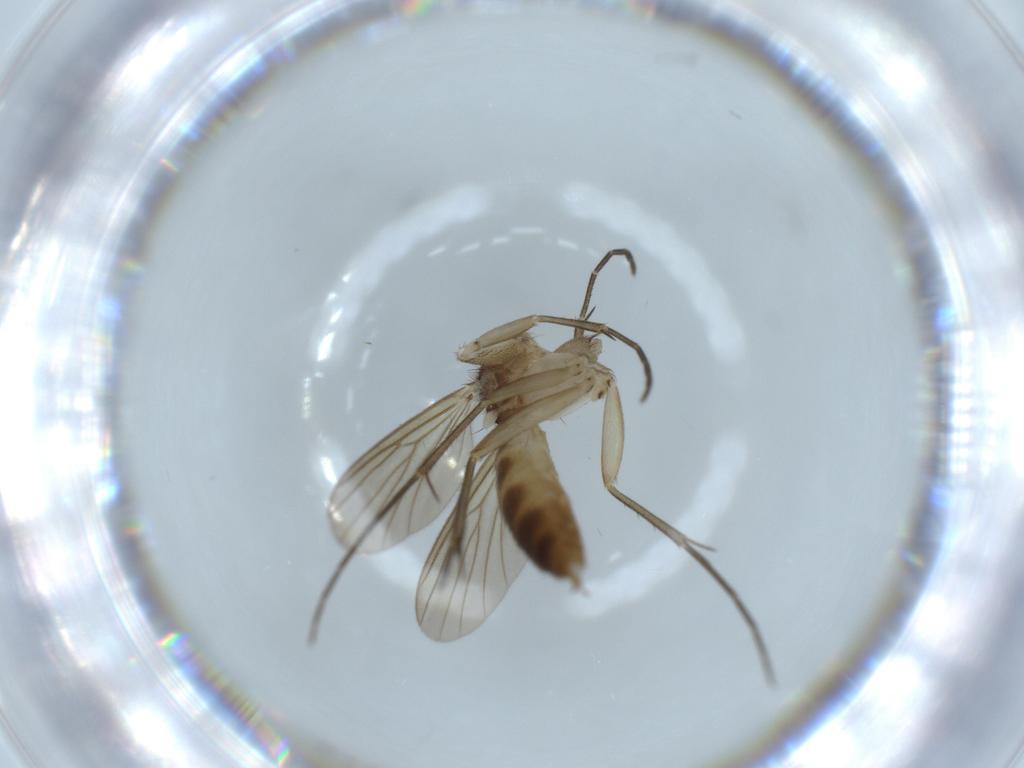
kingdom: Animalia
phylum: Arthropoda
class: Insecta
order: Diptera
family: Mycetophilidae
